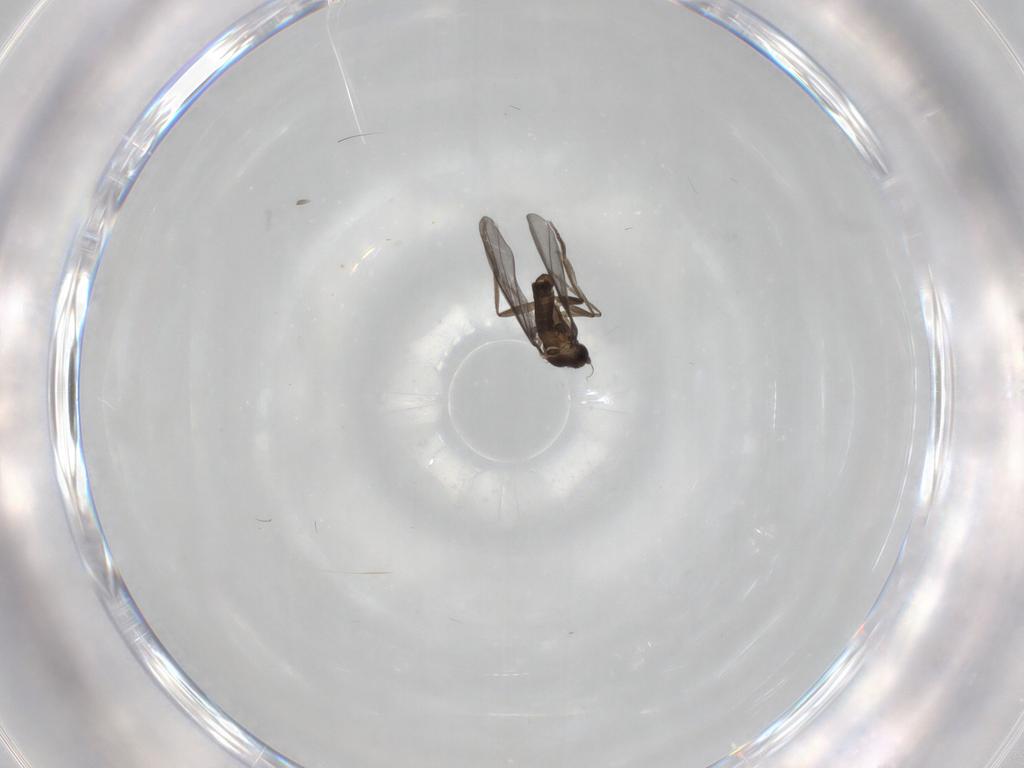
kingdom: Animalia
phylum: Arthropoda
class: Insecta
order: Diptera
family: Phoridae
